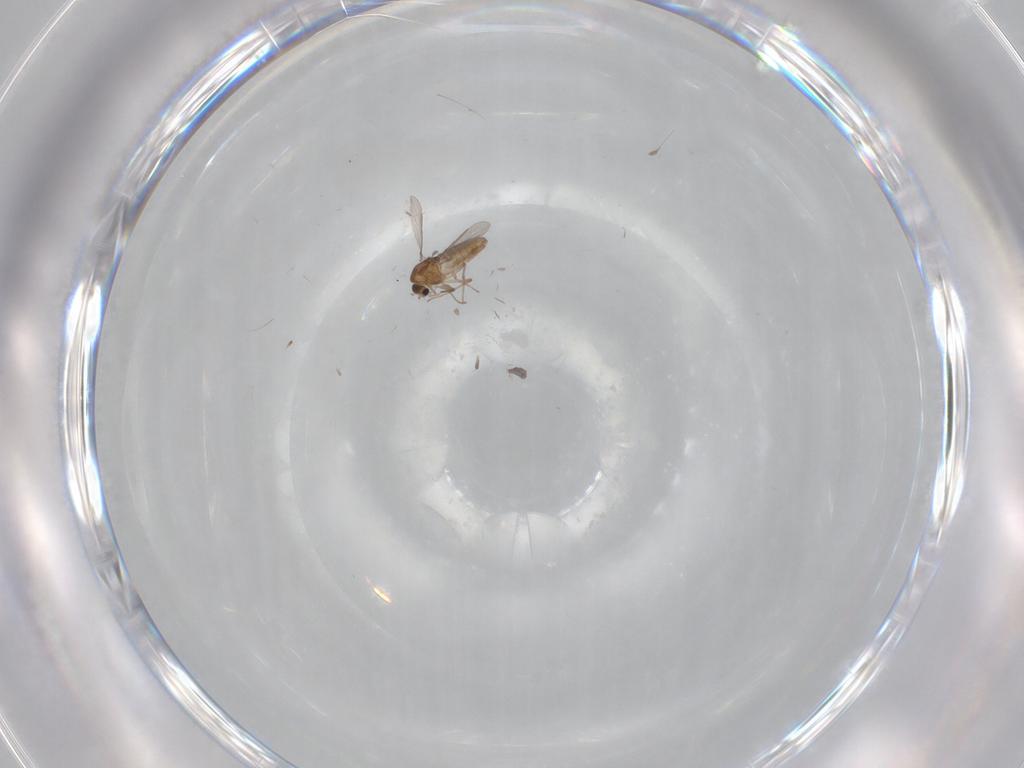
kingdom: Animalia
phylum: Arthropoda
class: Insecta
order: Diptera
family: Chironomidae
